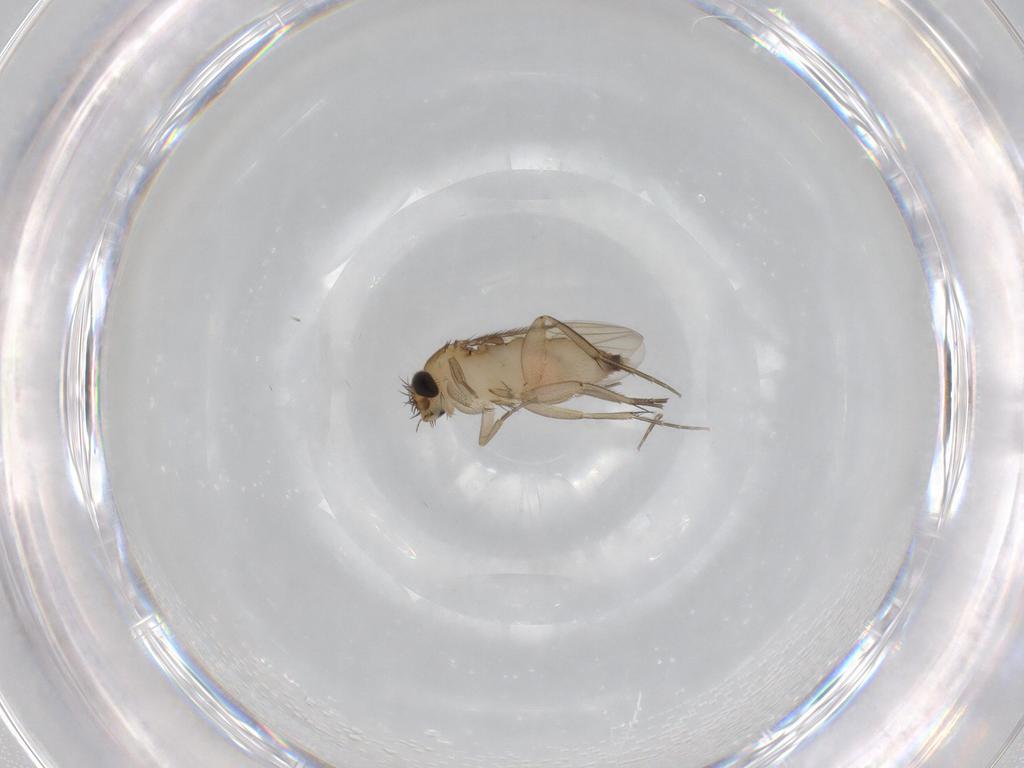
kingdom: Animalia
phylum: Arthropoda
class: Insecta
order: Diptera
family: Phoridae
